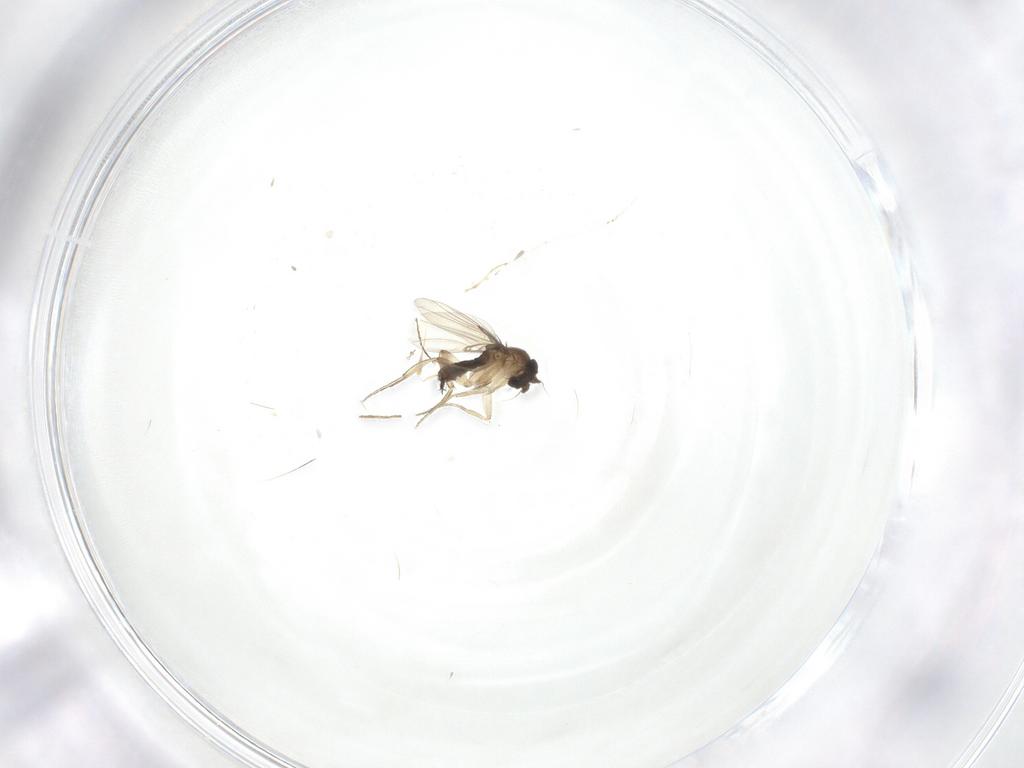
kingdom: Animalia
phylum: Arthropoda
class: Insecta
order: Diptera
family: Phoridae
